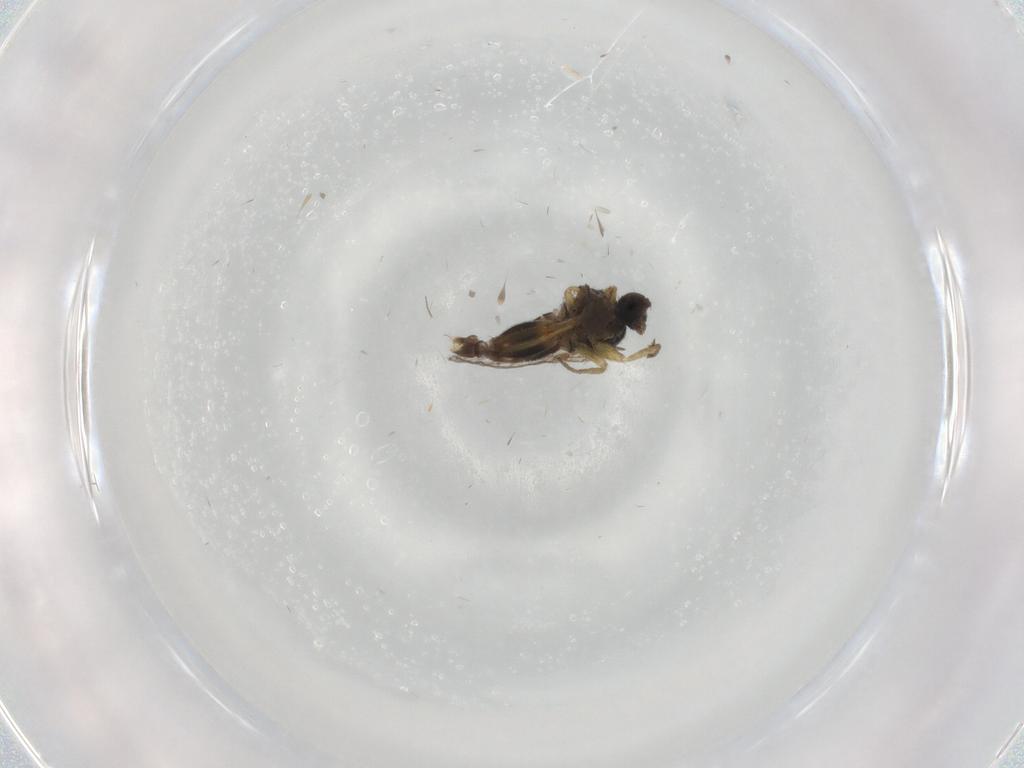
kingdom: Animalia
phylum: Arthropoda
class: Insecta
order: Diptera
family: Hybotidae
